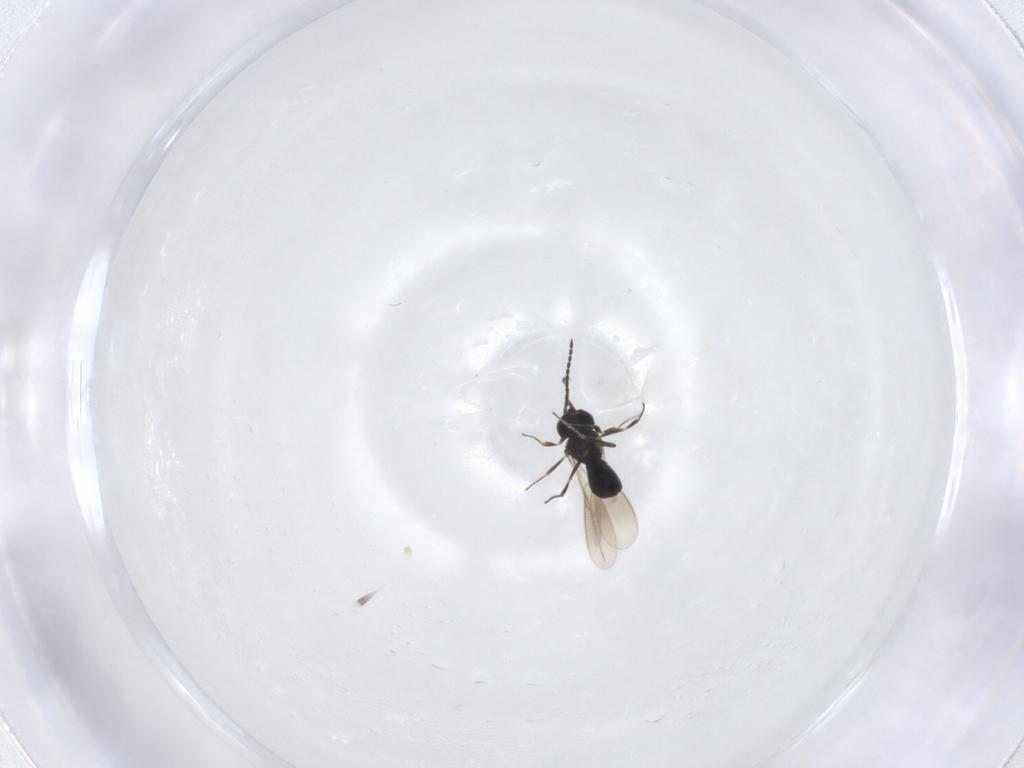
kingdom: Animalia
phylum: Arthropoda
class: Insecta
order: Hymenoptera
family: Scelionidae
